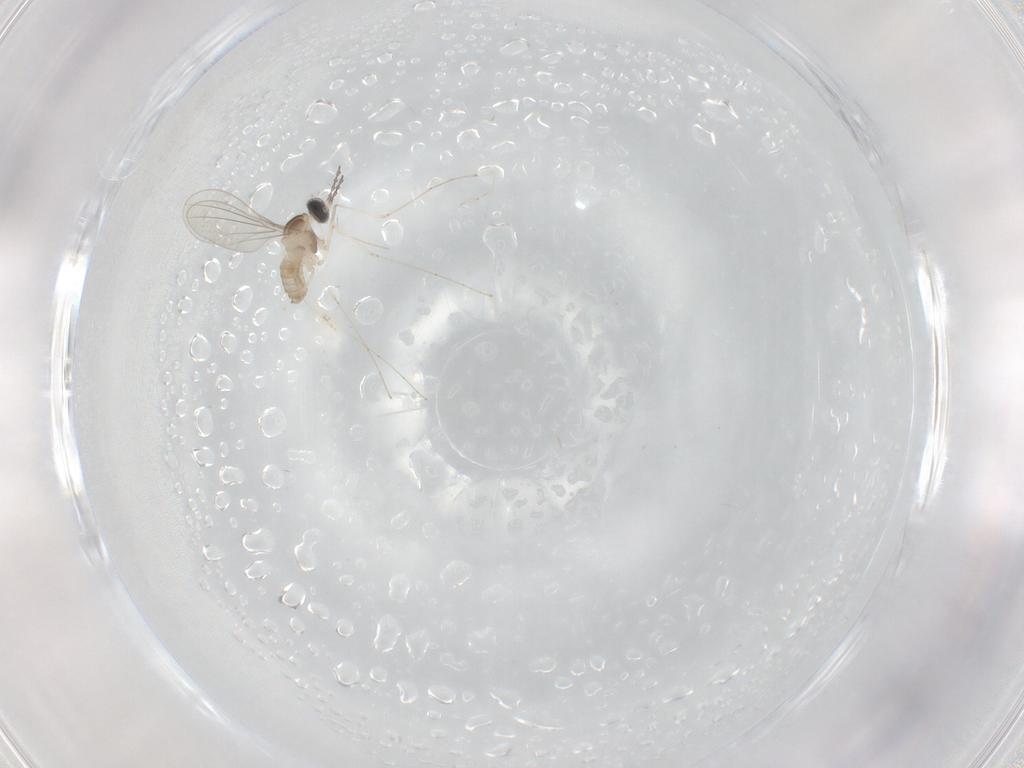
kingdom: Animalia
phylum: Arthropoda
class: Insecta
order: Diptera
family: Cecidomyiidae
